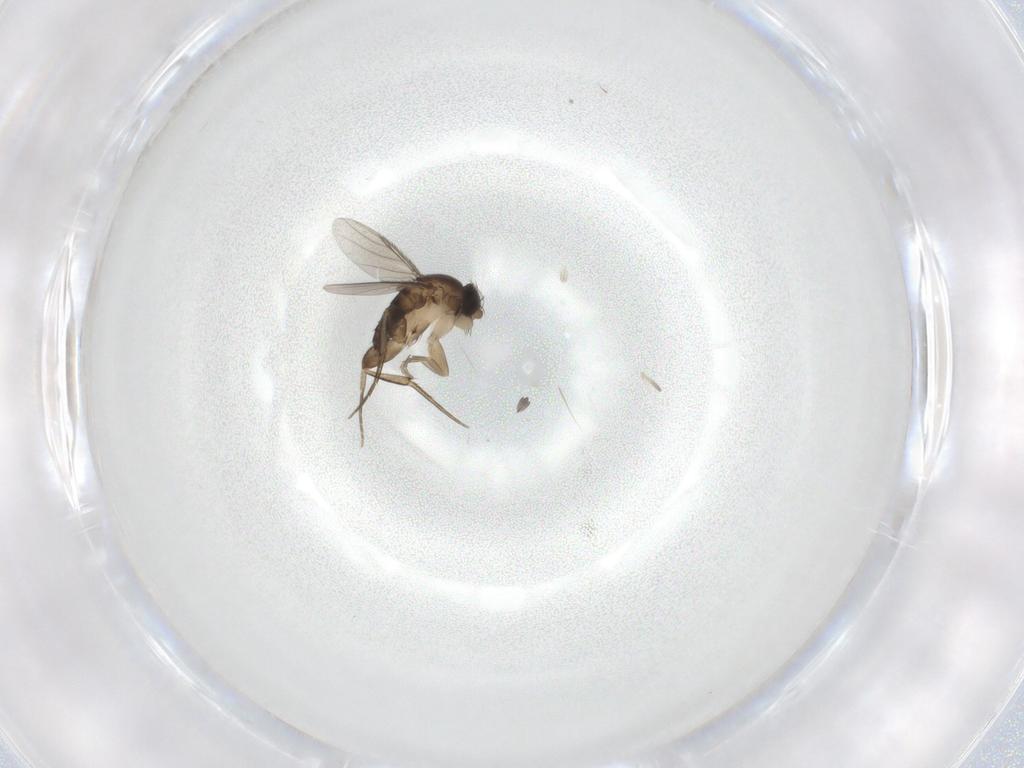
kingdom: Animalia
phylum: Arthropoda
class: Insecta
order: Diptera
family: Phoridae
